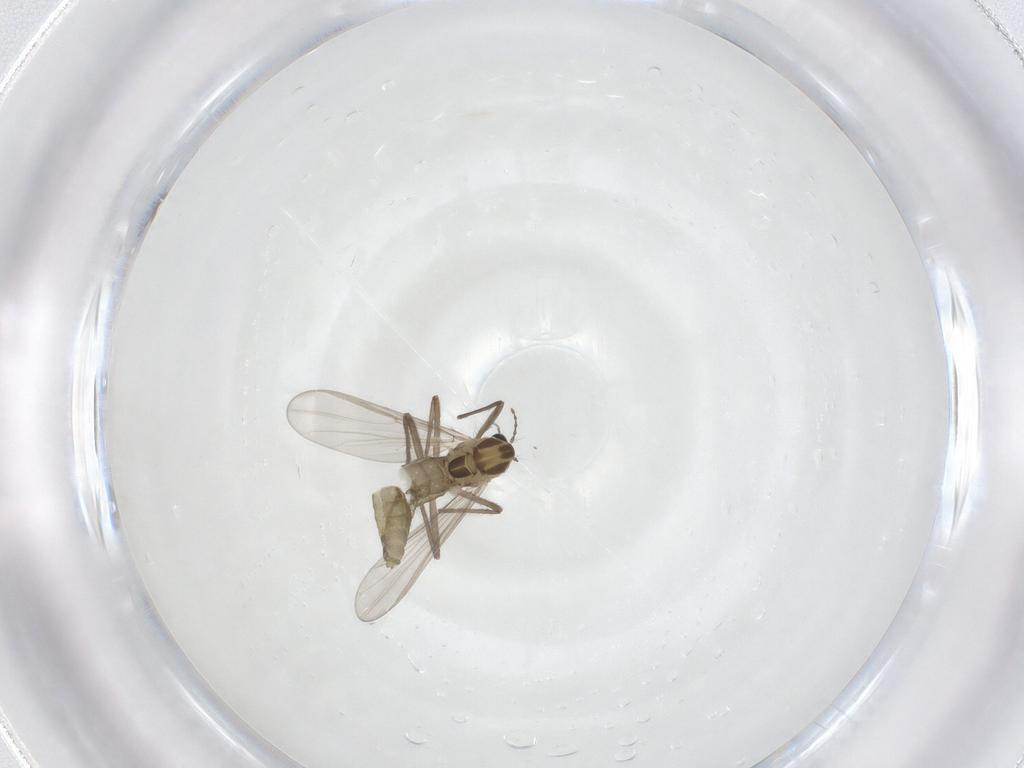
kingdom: Animalia
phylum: Arthropoda
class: Insecta
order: Diptera
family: Chironomidae
